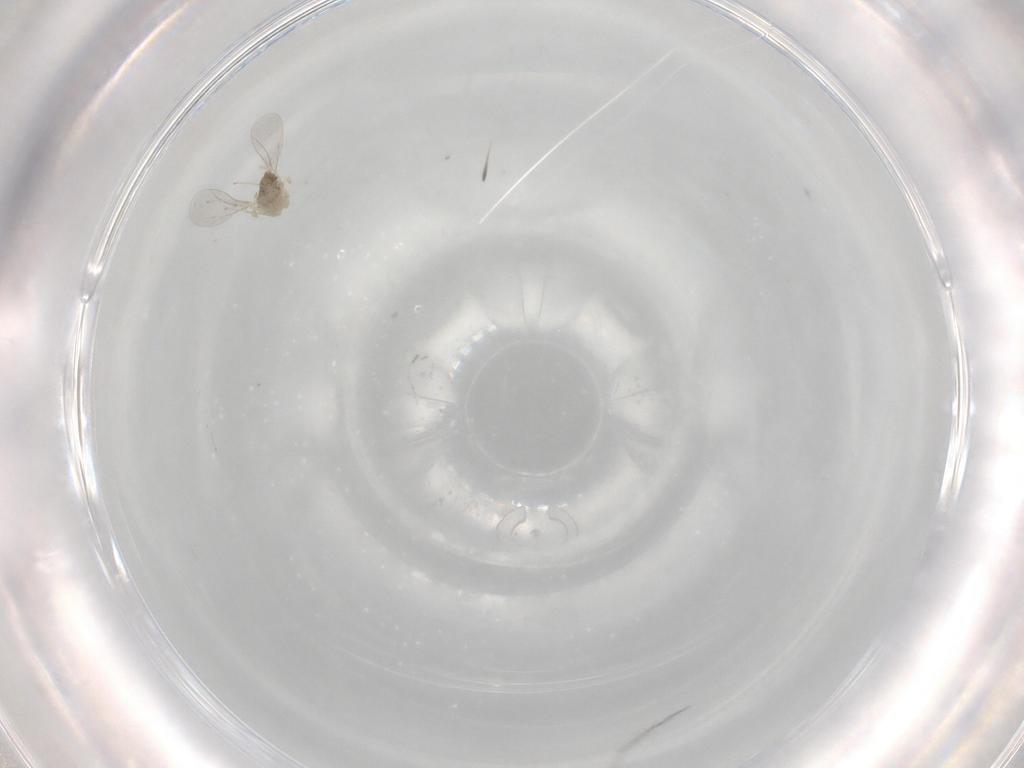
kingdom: Animalia
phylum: Arthropoda
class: Insecta
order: Diptera
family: Cecidomyiidae
